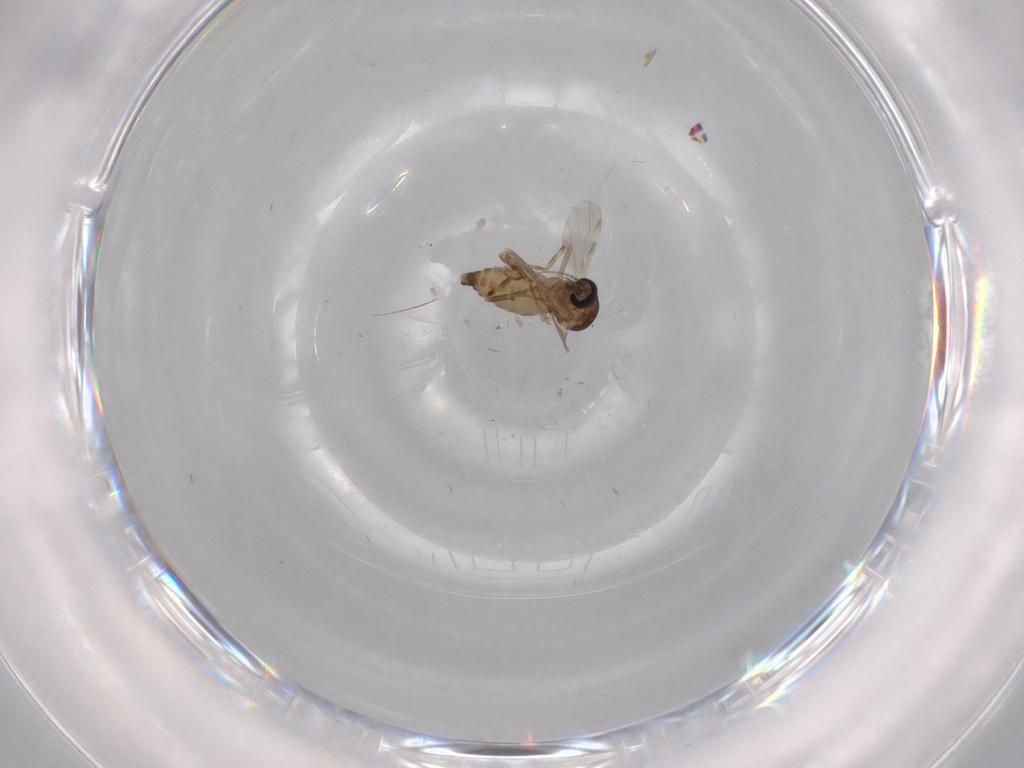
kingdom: Animalia
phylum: Arthropoda
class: Insecta
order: Diptera
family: Ceratopogonidae
